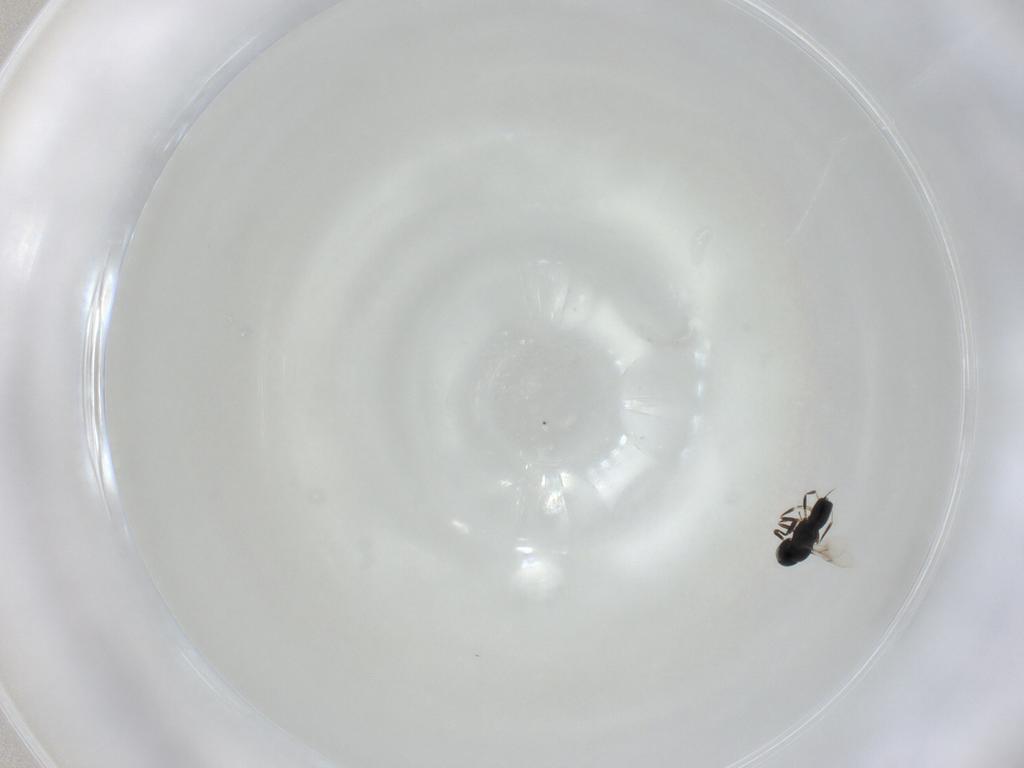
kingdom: Animalia
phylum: Arthropoda
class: Insecta
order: Hymenoptera
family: Scelionidae
